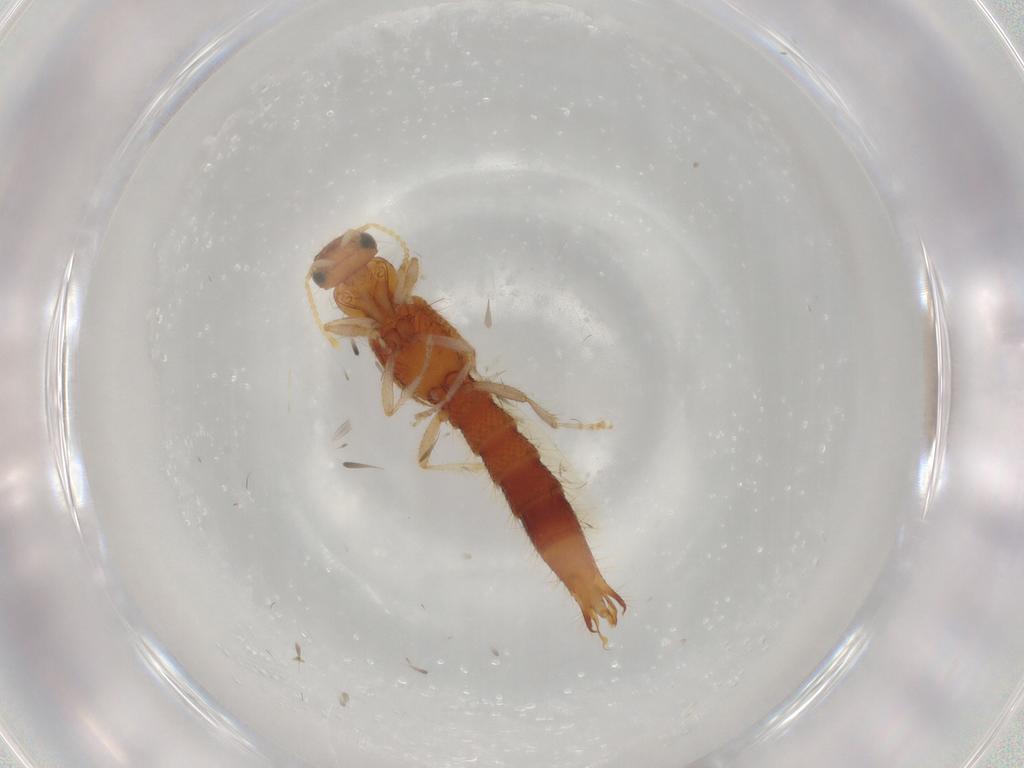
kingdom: Animalia
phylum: Arthropoda
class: Insecta
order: Coleoptera
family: Staphylinidae
